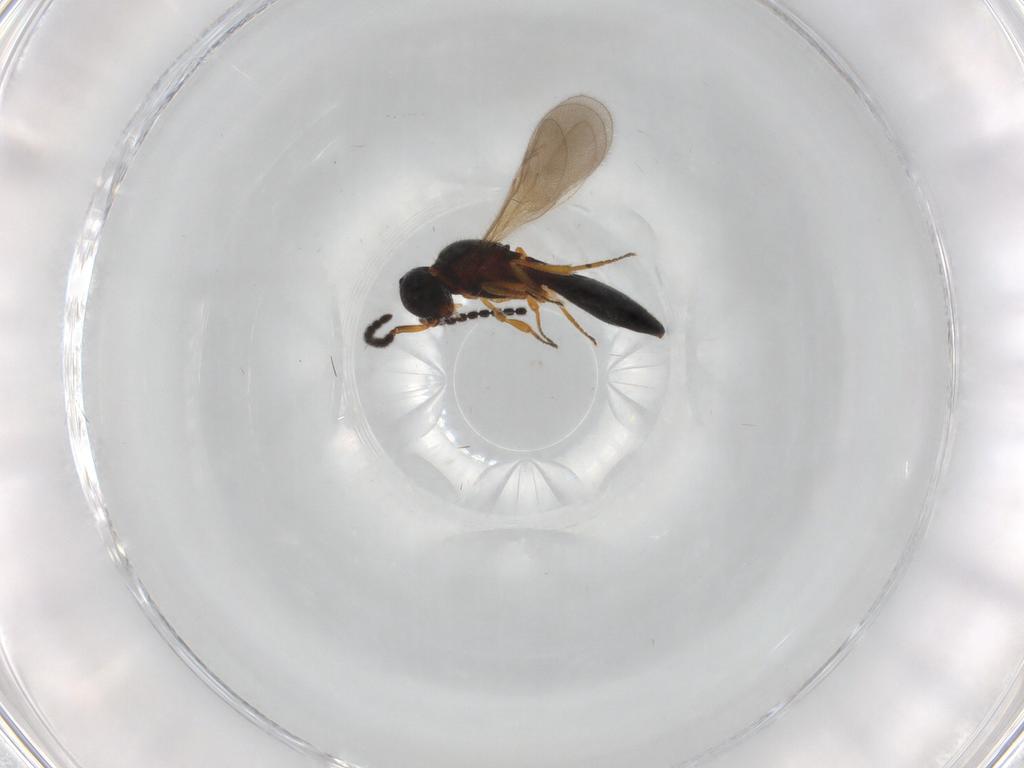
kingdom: Animalia
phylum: Arthropoda
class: Insecta
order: Hymenoptera
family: Scelionidae
